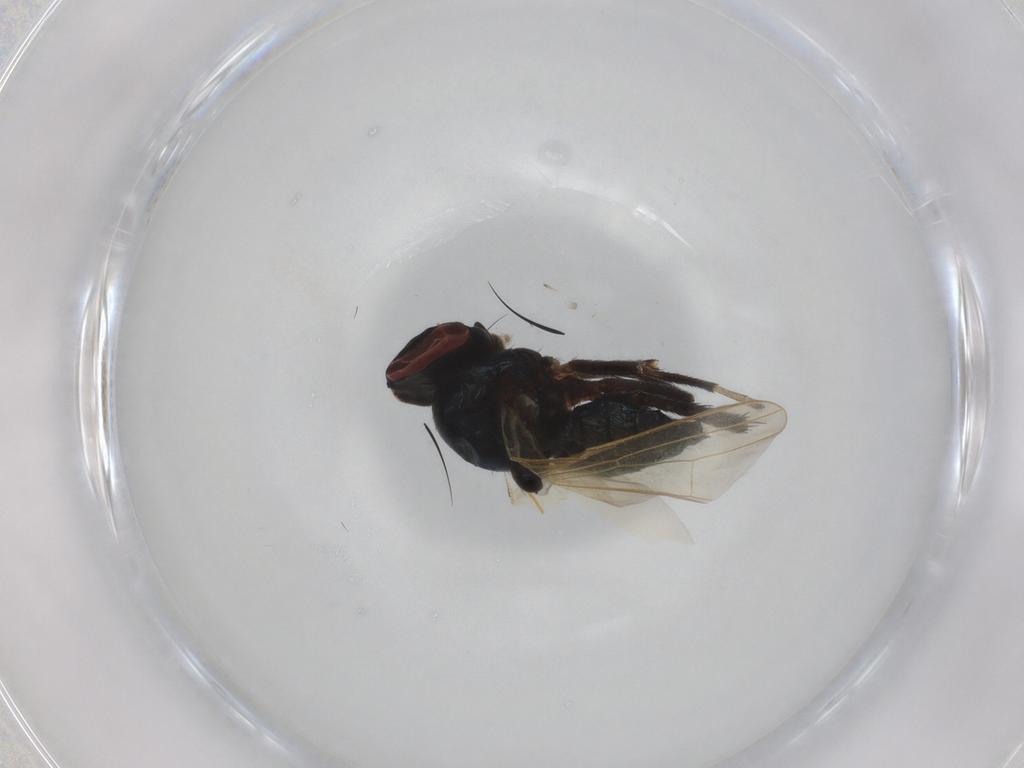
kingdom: Animalia
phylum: Arthropoda
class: Insecta
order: Diptera
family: Lonchaeidae
